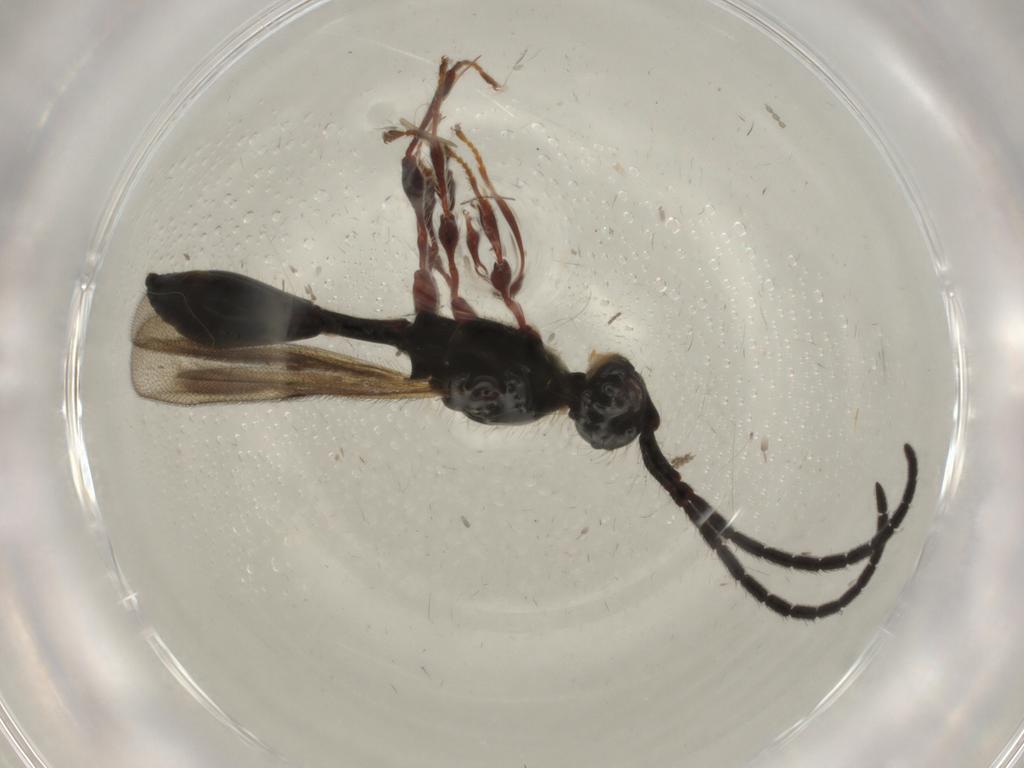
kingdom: Animalia
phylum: Arthropoda
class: Insecta
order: Hymenoptera
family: Diapriidae
